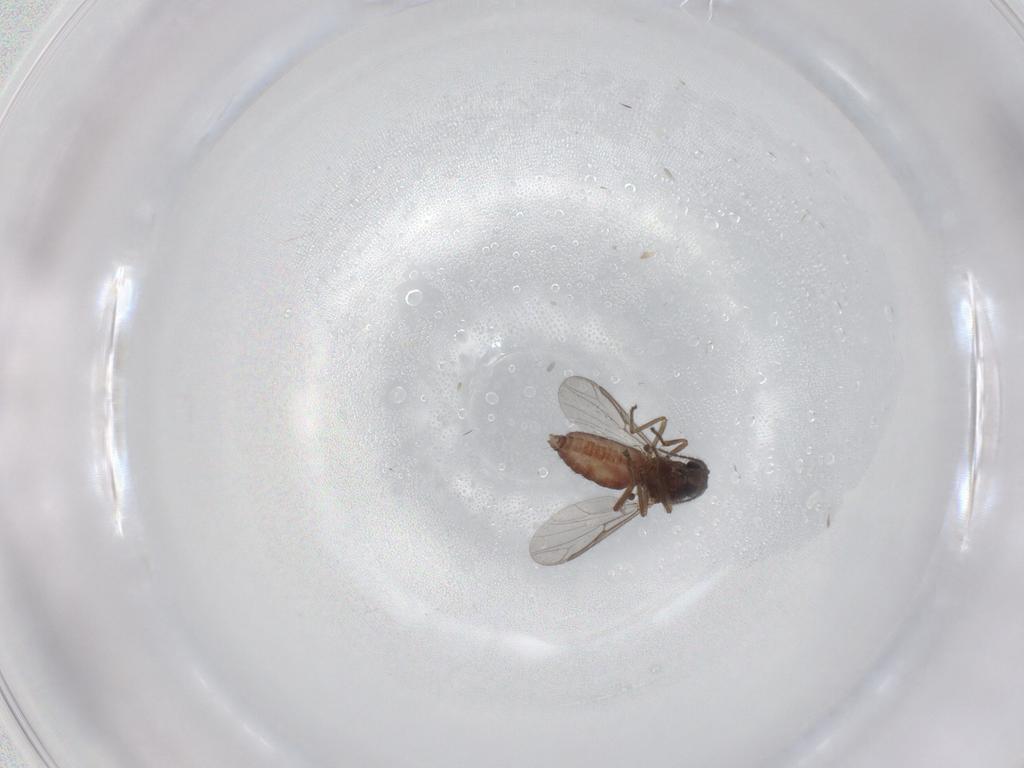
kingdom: Animalia
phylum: Arthropoda
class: Insecta
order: Diptera
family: Ceratopogonidae
